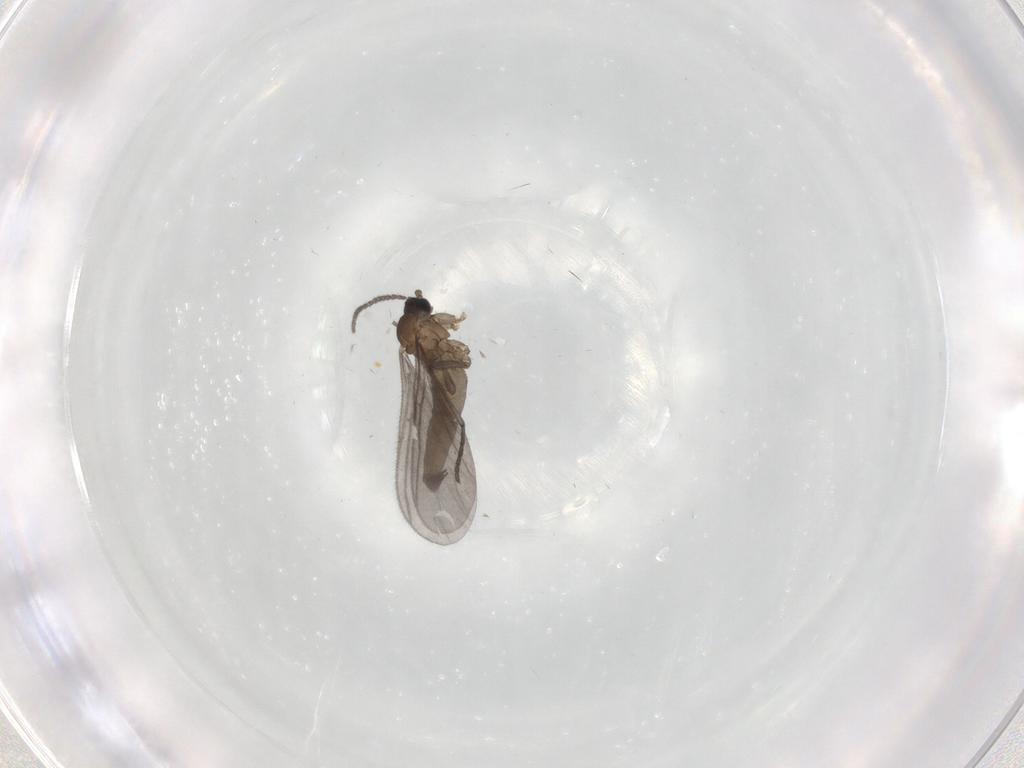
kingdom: Animalia
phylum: Arthropoda
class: Insecta
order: Diptera
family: Sciaridae
